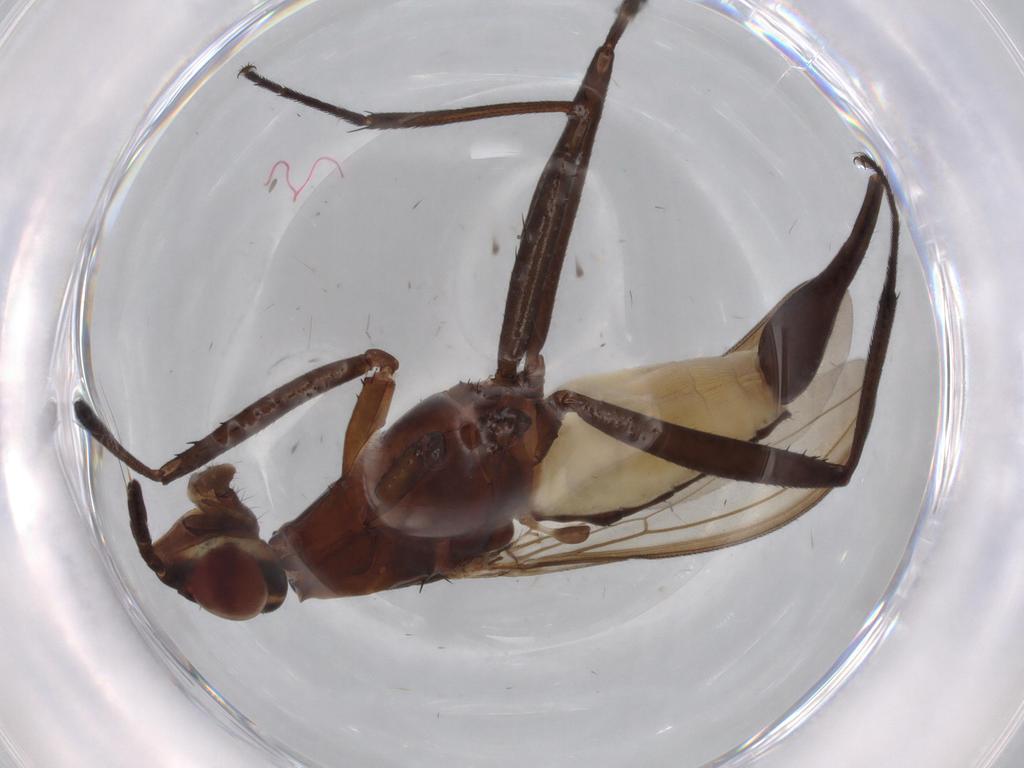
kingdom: Animalia
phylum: Arthropoda
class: Insecta
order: Diptera
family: Neriidae
